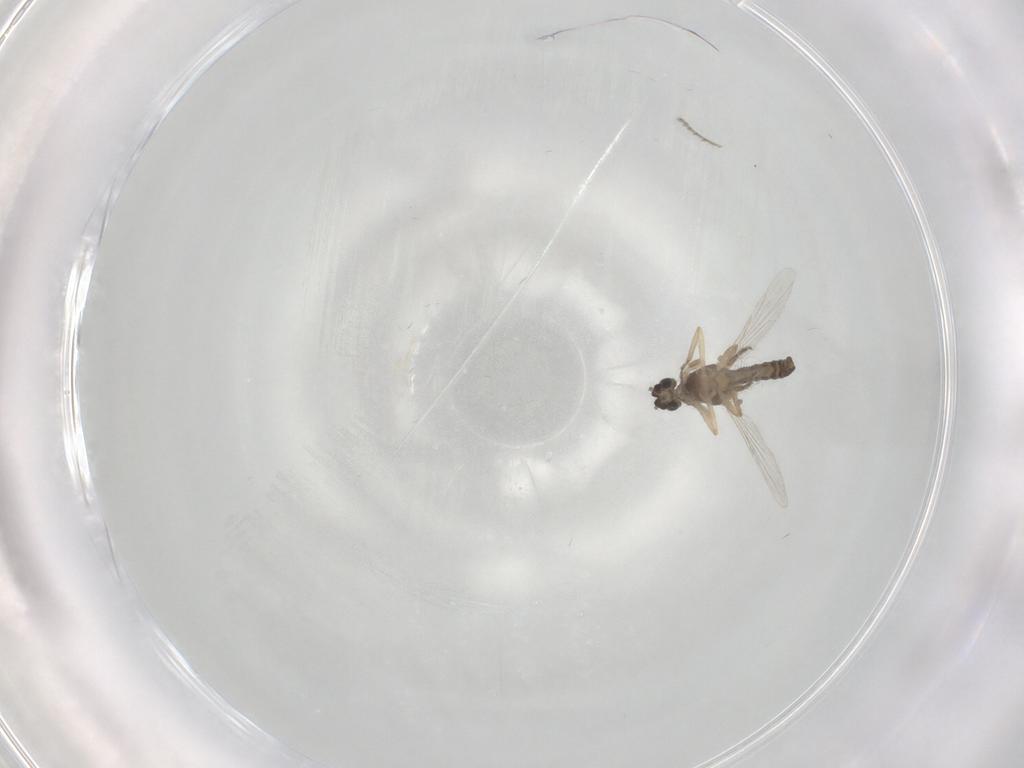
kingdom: Animalia
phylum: Arthropoda
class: Insecta
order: Diptera
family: Ceratopogonidae
